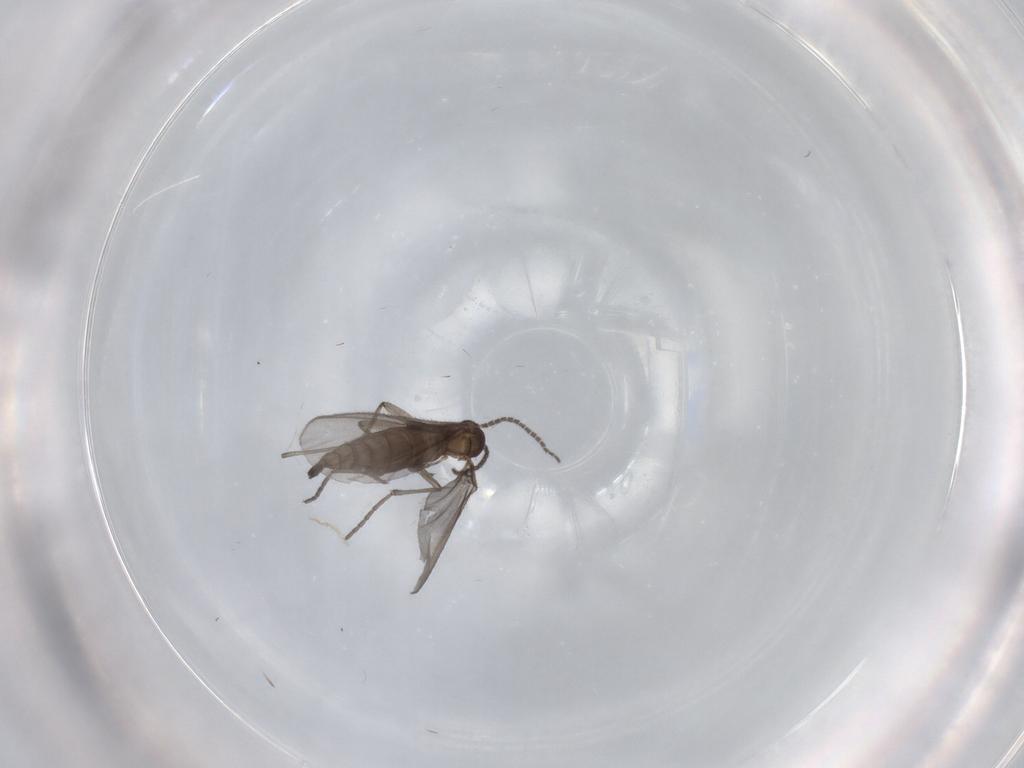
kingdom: Animalia
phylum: Arthropoda
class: Insecta
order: Diptera
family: Sciaridae
